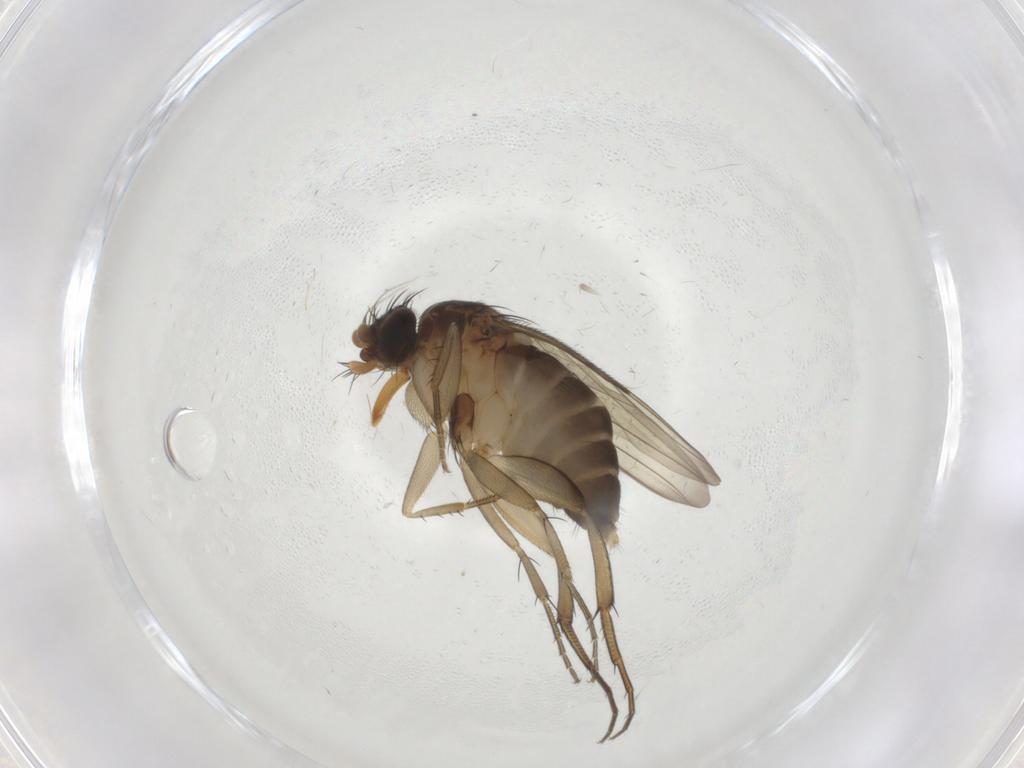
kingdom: Animalia
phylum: Arthropoda
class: Insecta
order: Diptera
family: Phoridae
